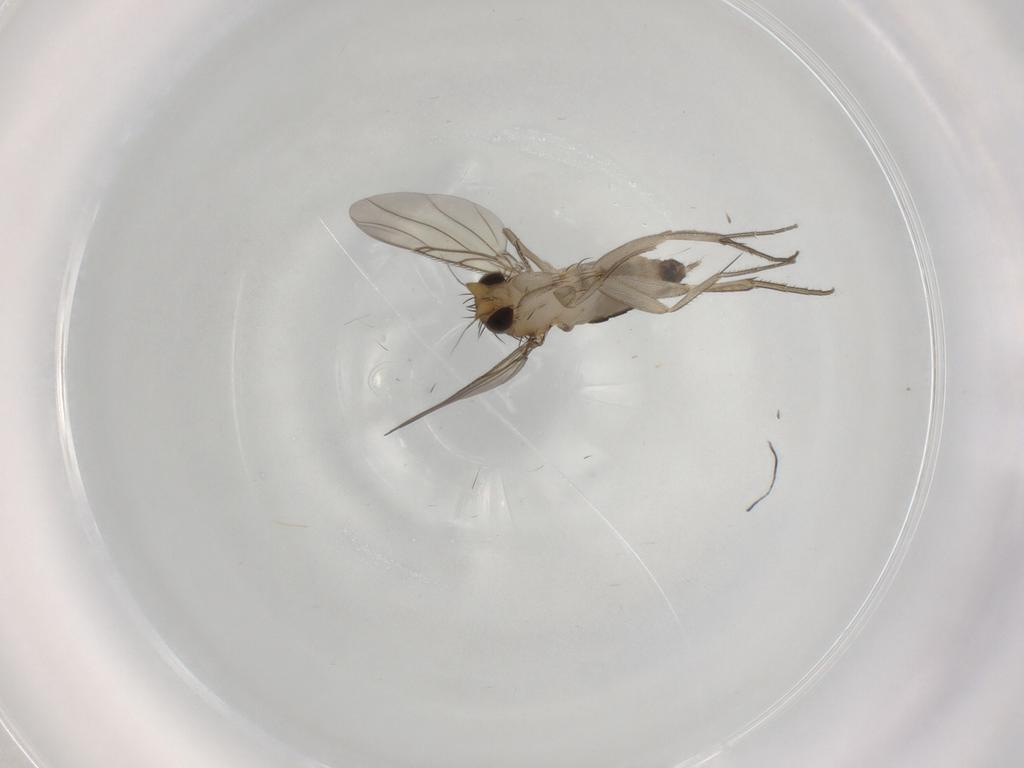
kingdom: Animalia
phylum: Arthropoda
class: Insecta
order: Diptera
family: Phoridae
